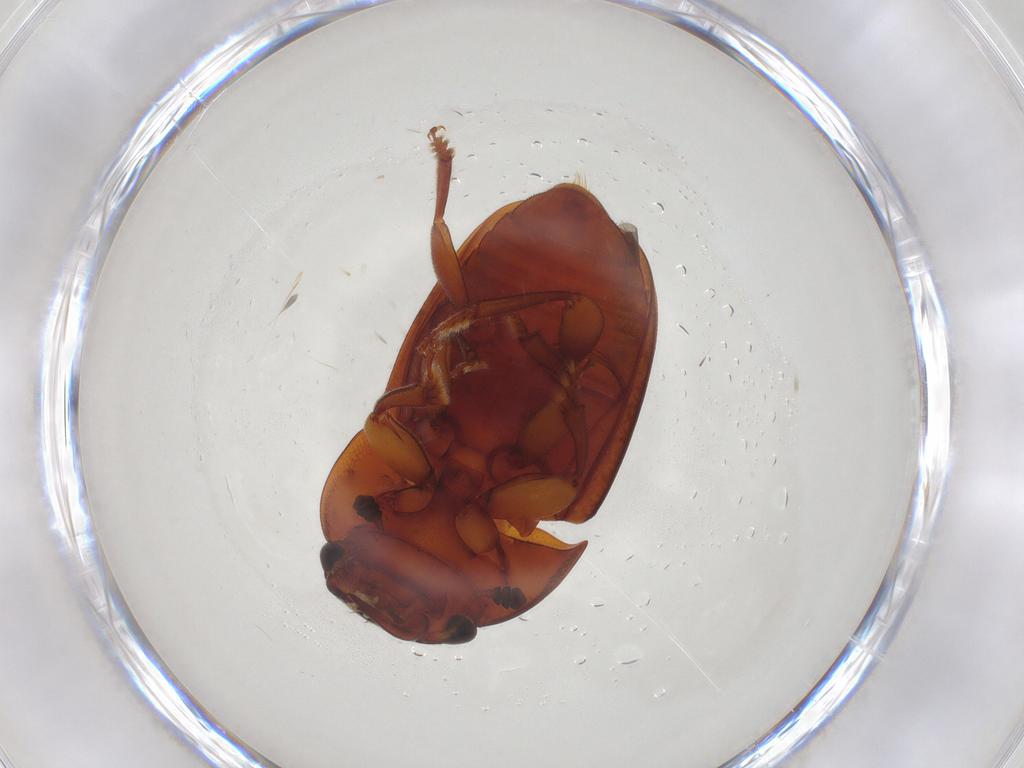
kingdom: Animalia
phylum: Arthropoda
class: Insecta
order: Coleoptera
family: Nitidulidae
